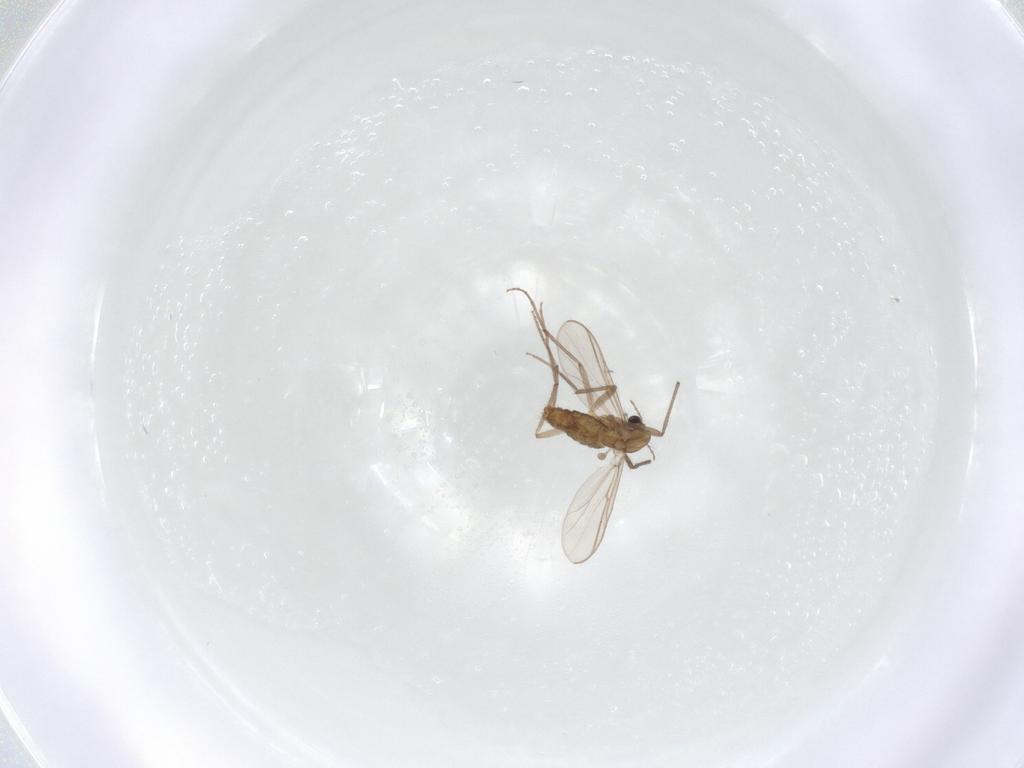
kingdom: Animalia
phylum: Arthropoda
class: Insecta
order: Diptera
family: Chironomidae
